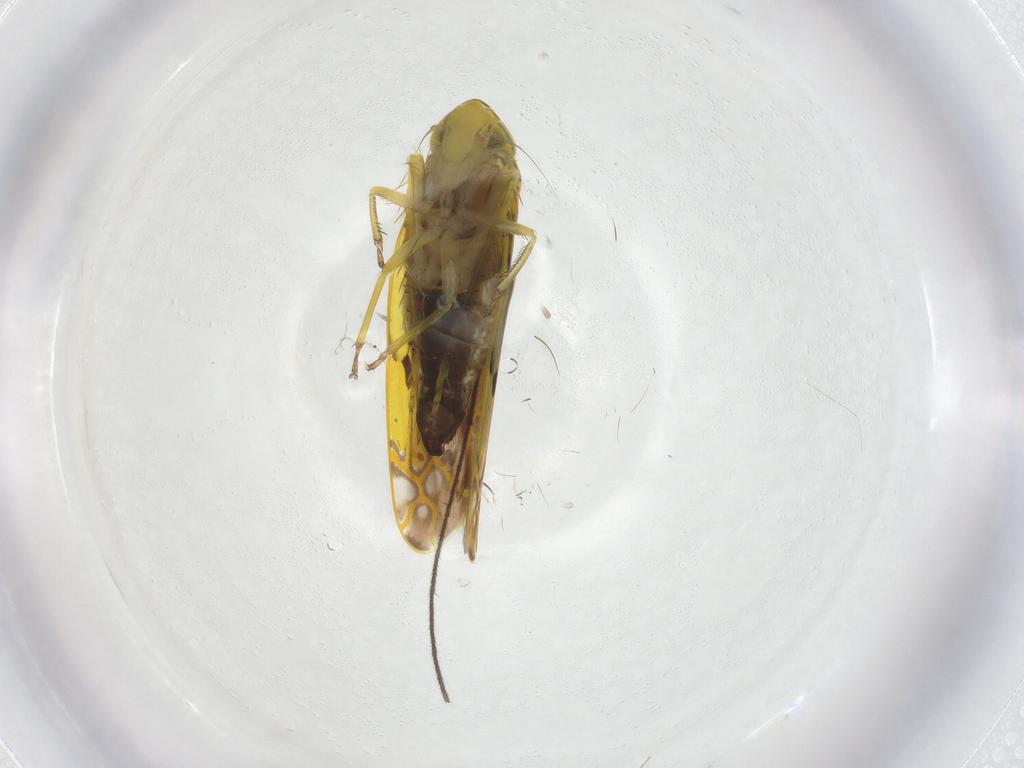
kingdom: Animalia
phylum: Arthropoda
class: Insecta
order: Hemiptera
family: Cicadellidae
